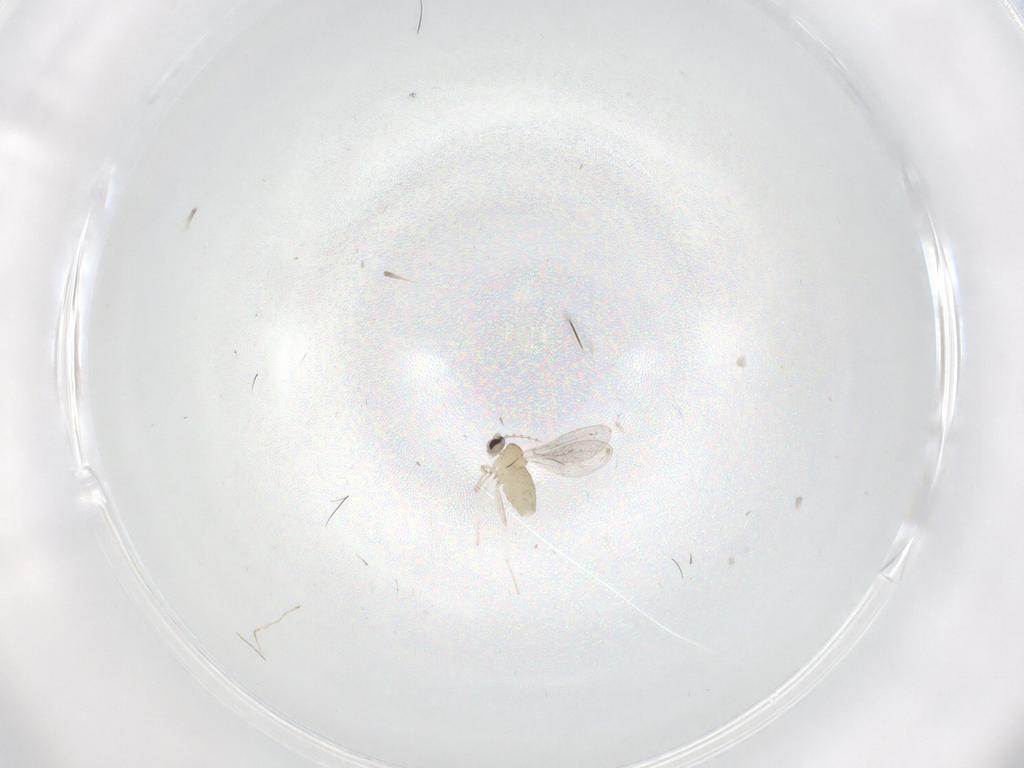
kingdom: Animalia
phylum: Arthropoda
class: Insecta
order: Diptera
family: Cecidomyiidae
